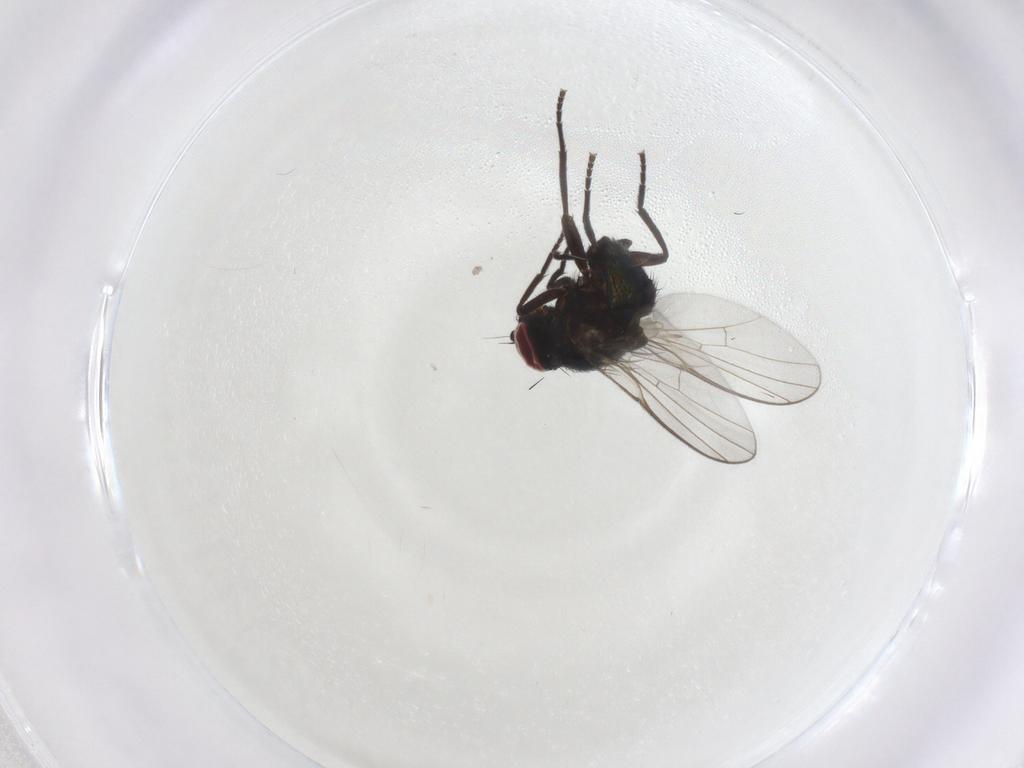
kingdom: Animalia
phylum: Arthropoda
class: Insecta
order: Diptera
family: Agromyzidae
